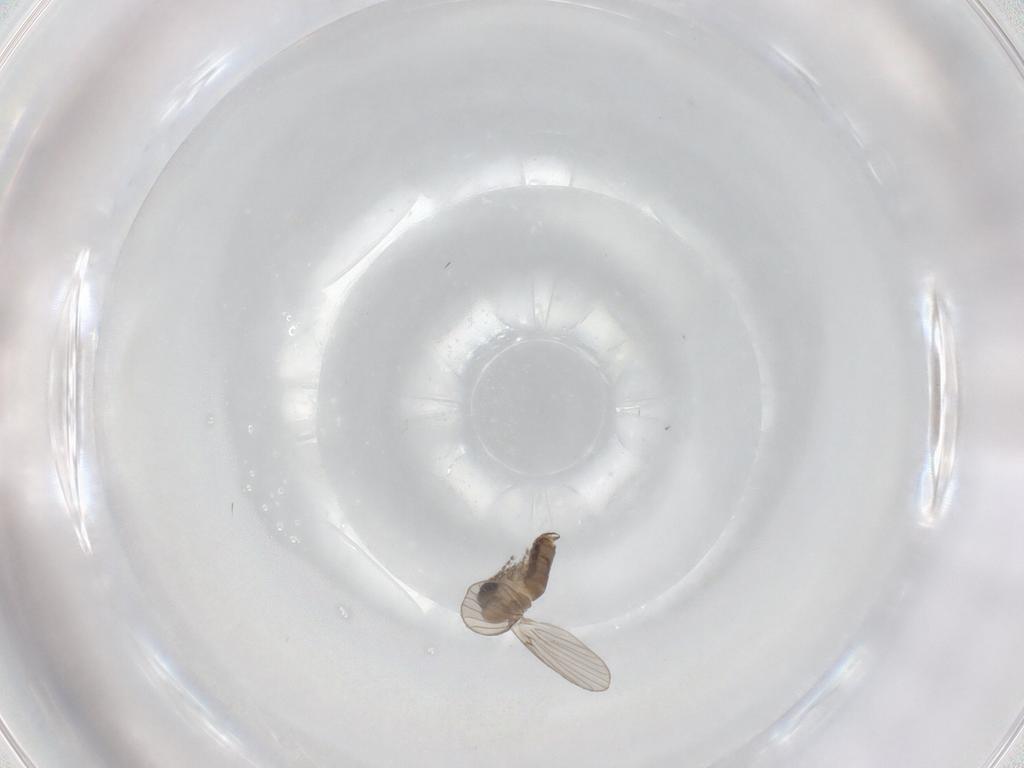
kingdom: Animalia
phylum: Arthropoda
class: Insecta
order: Diptera
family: Psychodidae
